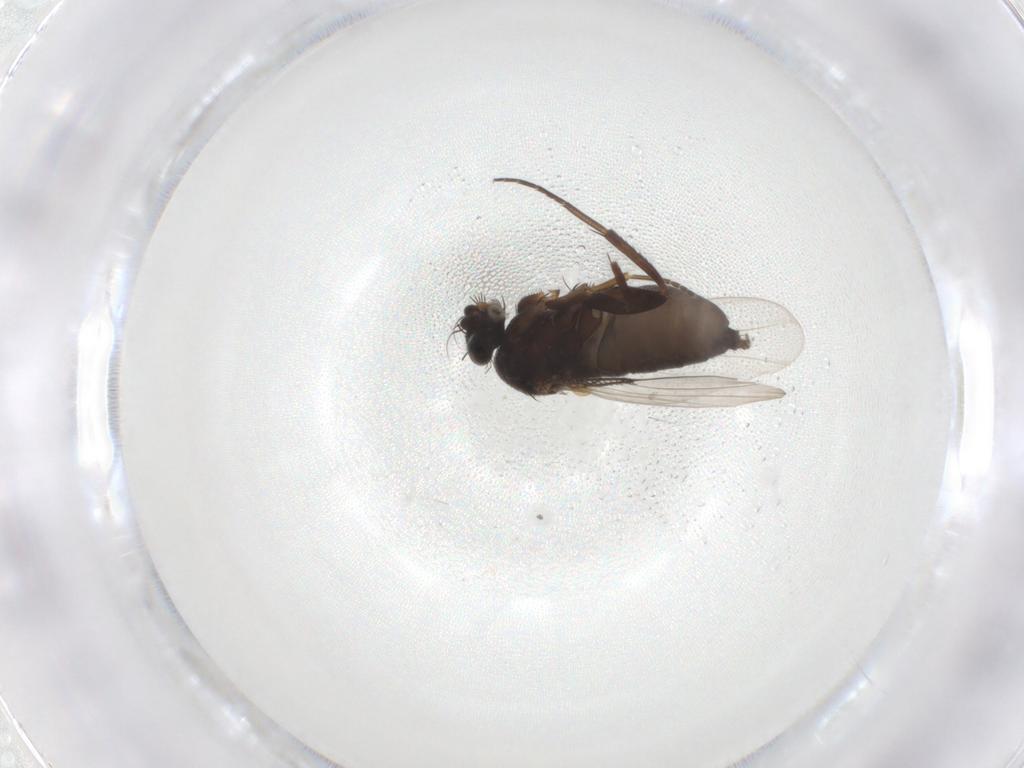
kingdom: Animalia
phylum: Arthropoda
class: Insecta
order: Diptera
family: Phoridae
